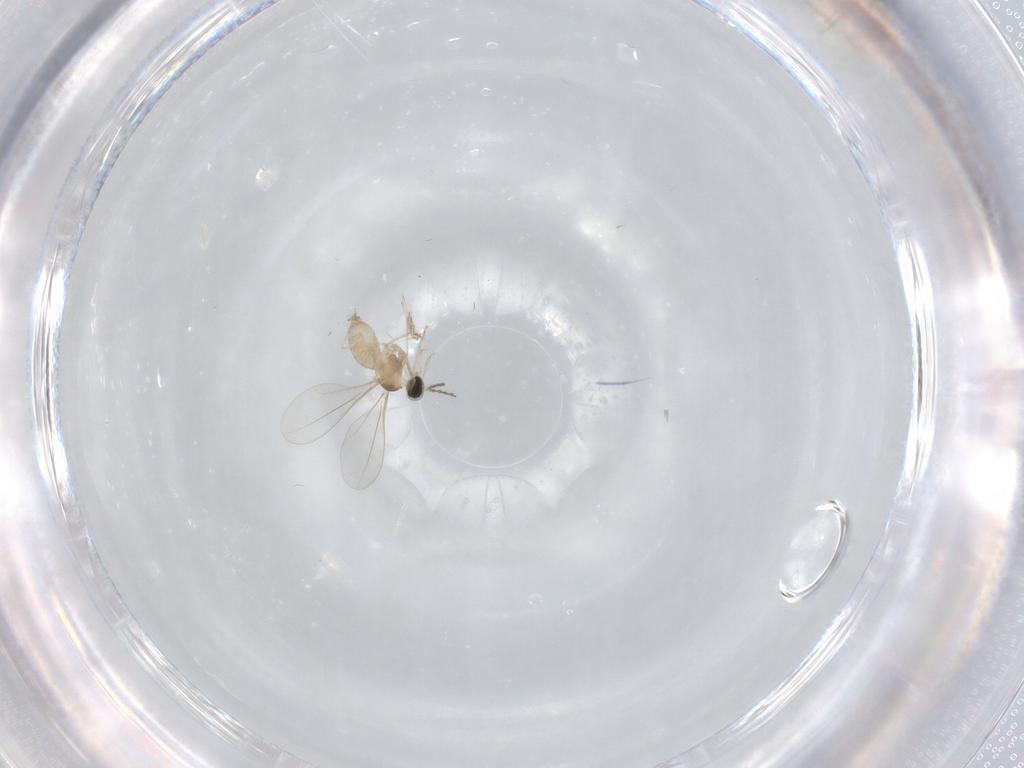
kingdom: Animalia
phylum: Arthropoda
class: Insecta
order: Diptera
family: Cecidomyiidae
